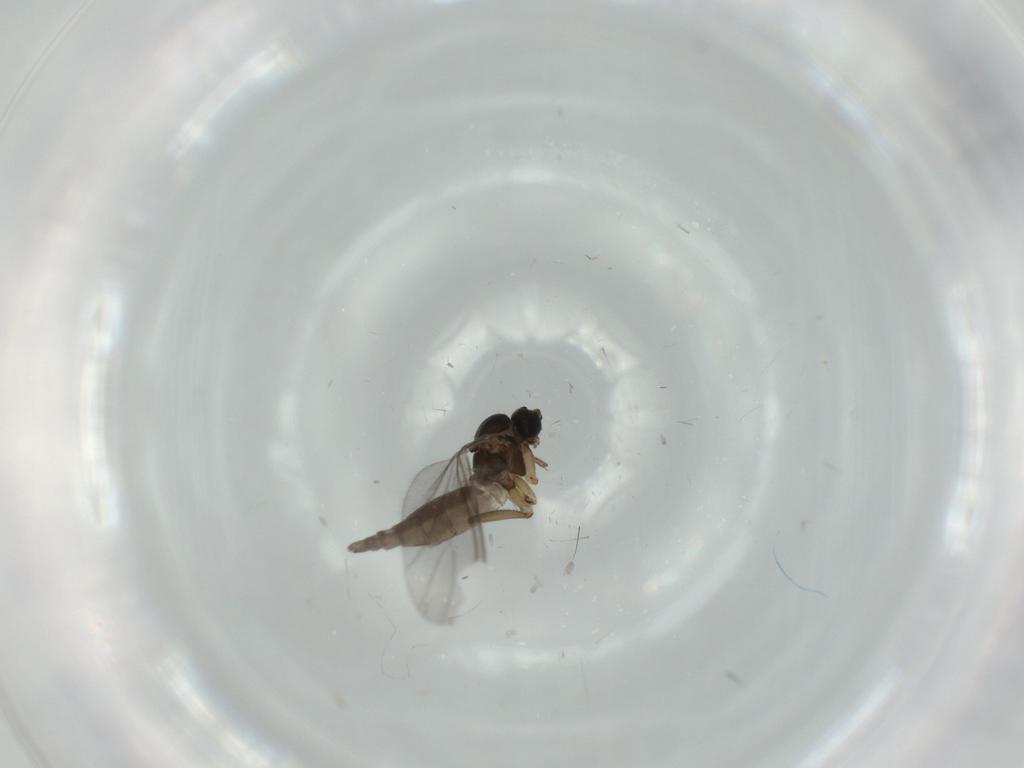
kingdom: Animalia
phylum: Arthropoda
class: Insecta
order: Diptera
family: Sciaridae
